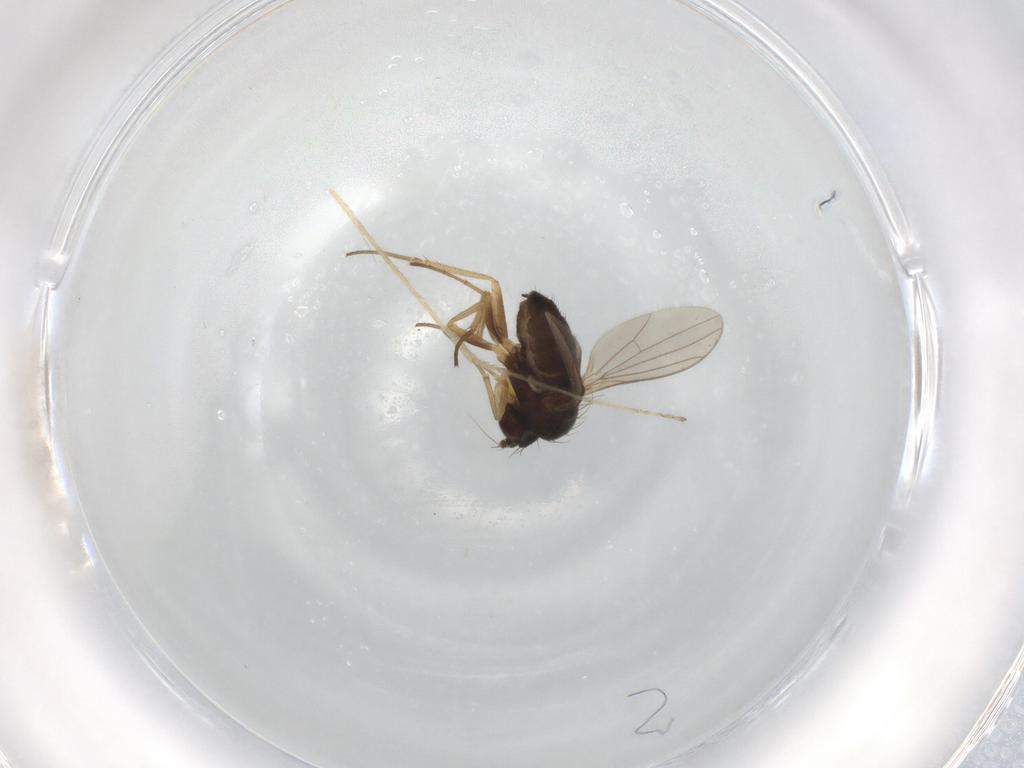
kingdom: Animalia
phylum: Arthropoda
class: Insecta
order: Diptera
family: Limoniidae
